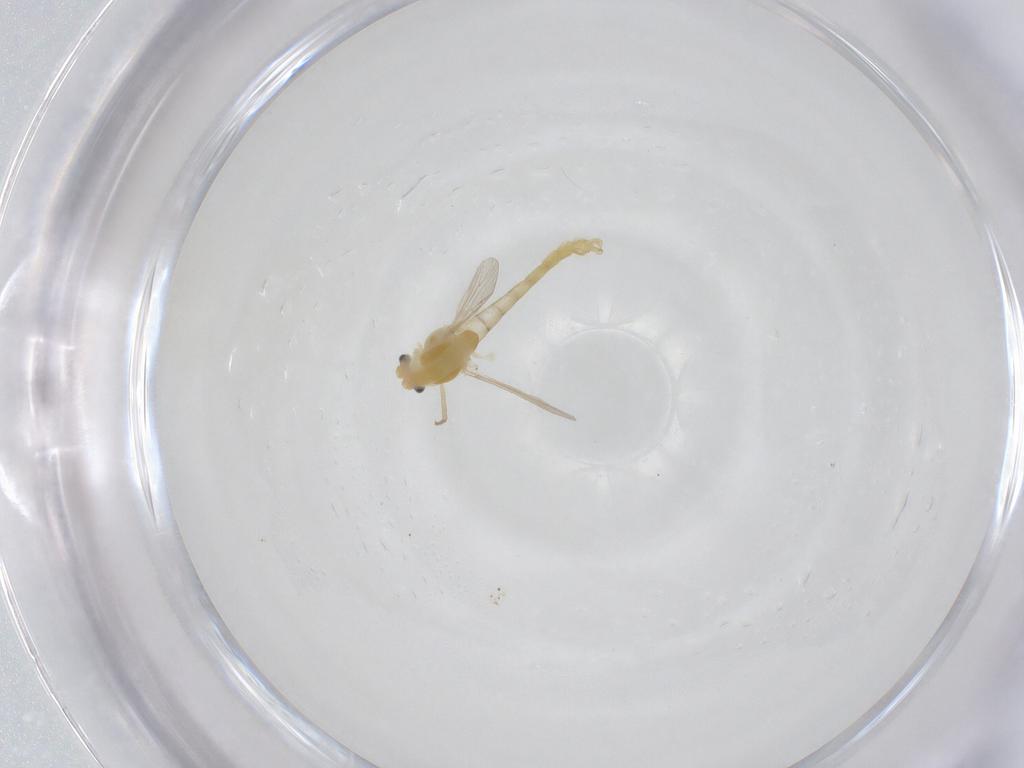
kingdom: Animalia
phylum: Arthropoda
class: Insecta
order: Diptera
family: Chironomidae
